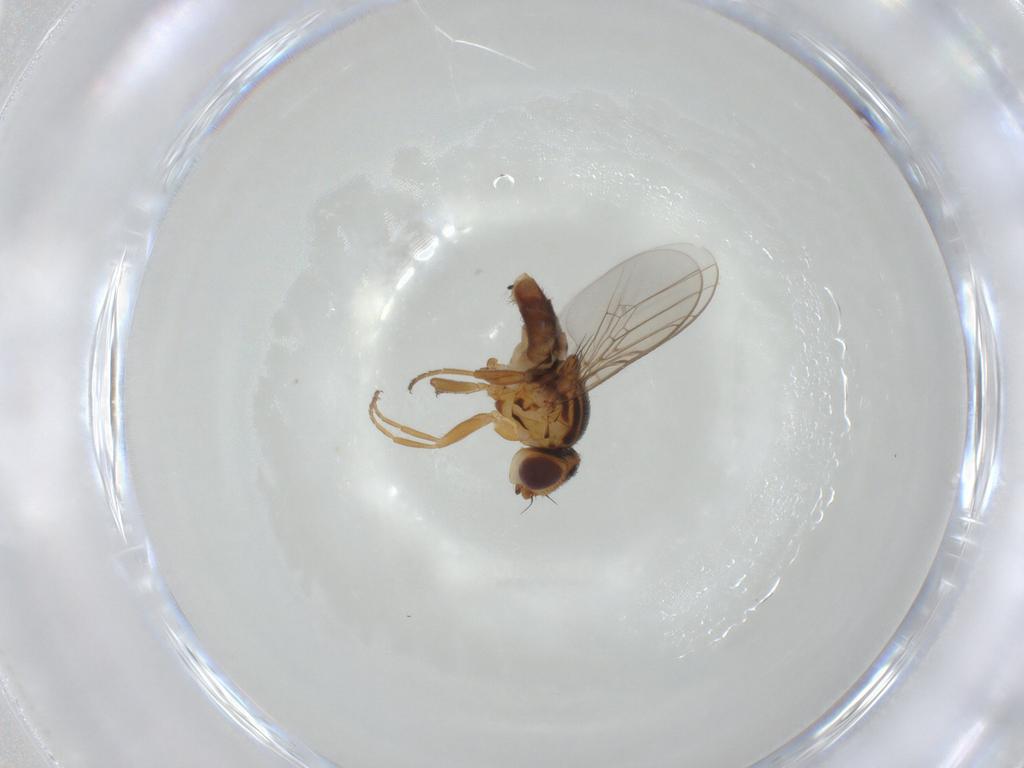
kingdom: Animalia
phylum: Arthropoda
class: Insecta
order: Diptera
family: Chloropidae
